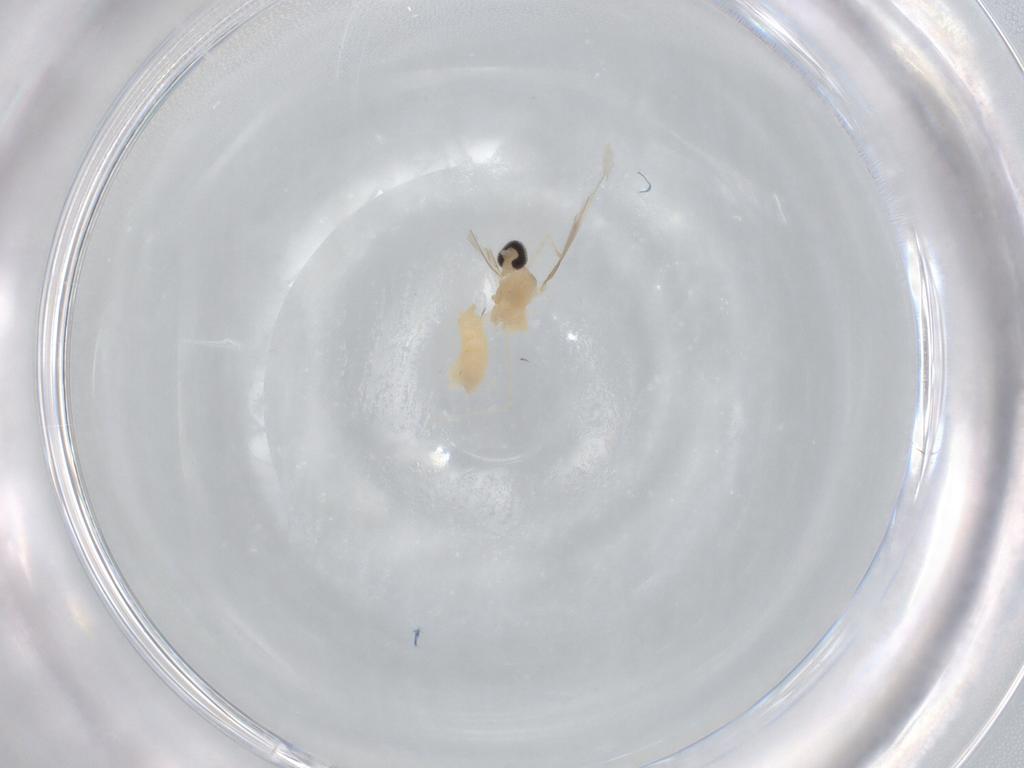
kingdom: Animalia
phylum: Arthropoda
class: Insecta
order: Diptera
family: Cecidomyiidae
